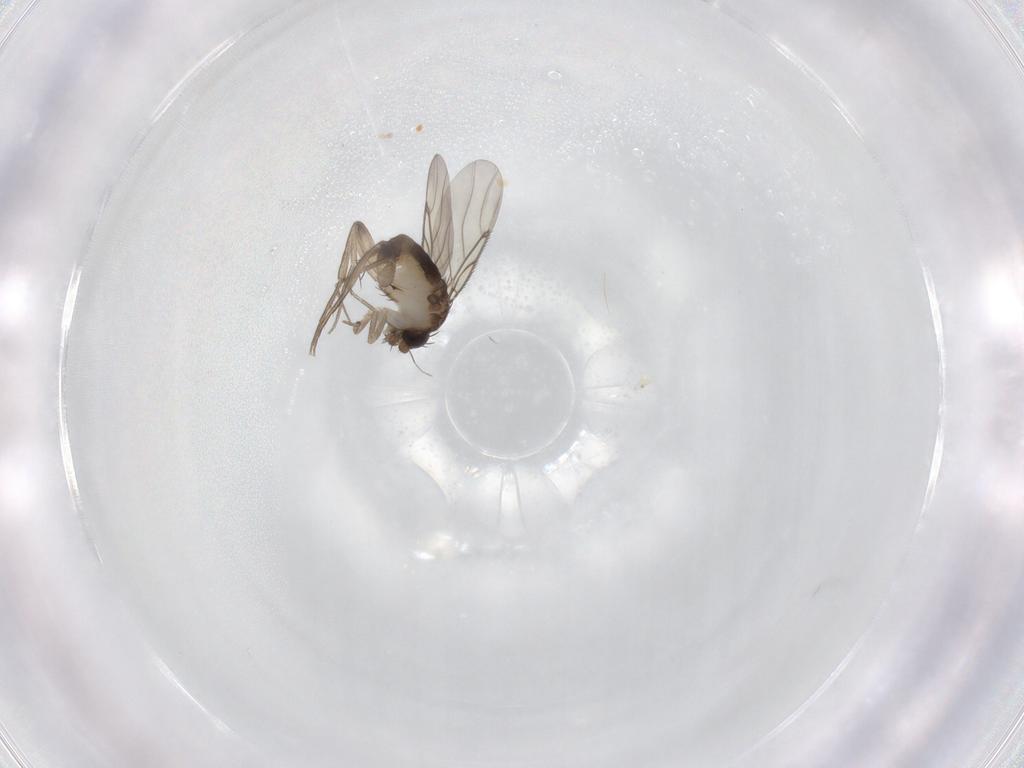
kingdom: Animalia
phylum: Arthropoda
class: Insecta
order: Diptera
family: Phoridae
